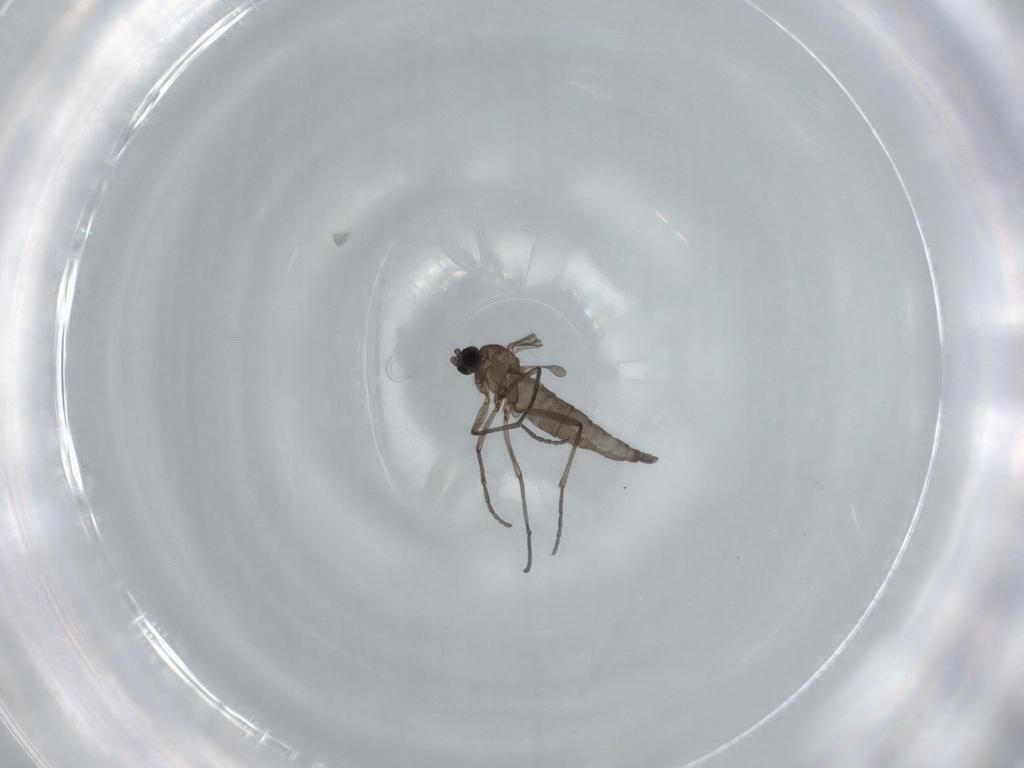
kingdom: Animalia
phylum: Arthropoda
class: Insecta
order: Diptera
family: Sciaridae
